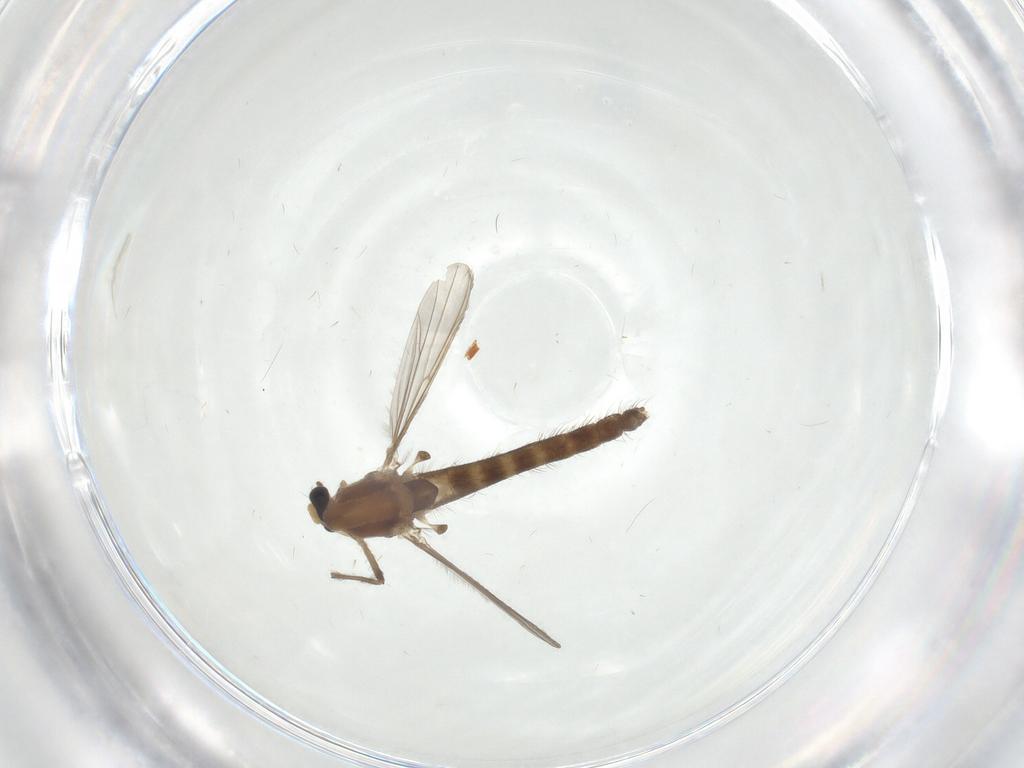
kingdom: Animalia
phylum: Arthropoda
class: Insecta
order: Diptera
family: Chironomidae
